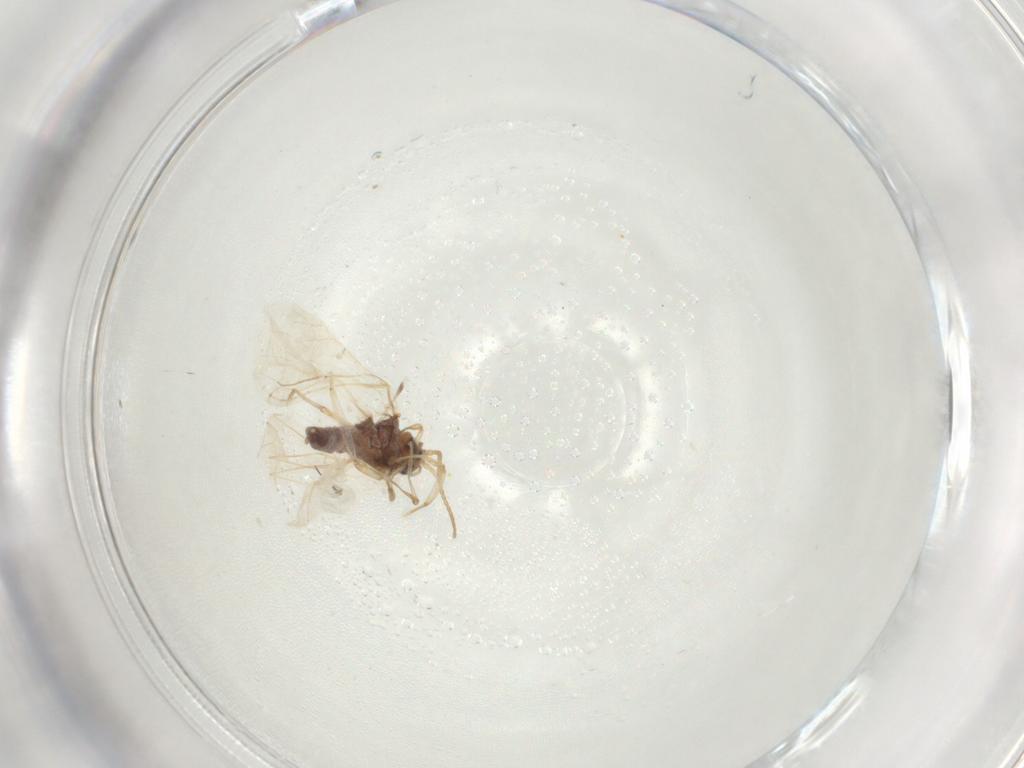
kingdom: Animalia
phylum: Arthropoda
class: Insecta
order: Neuroptera
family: Coniopterygidae
